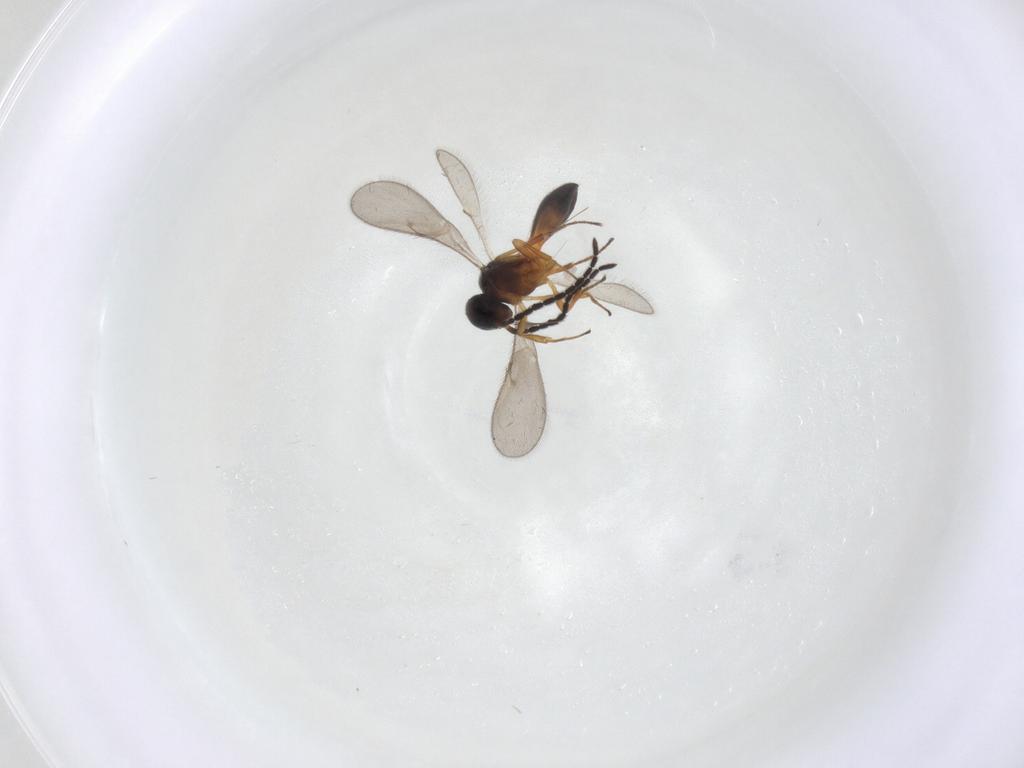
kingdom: Animalia
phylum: Arthropoda
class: Insecta
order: Hymenoptera
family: Scelionidae
